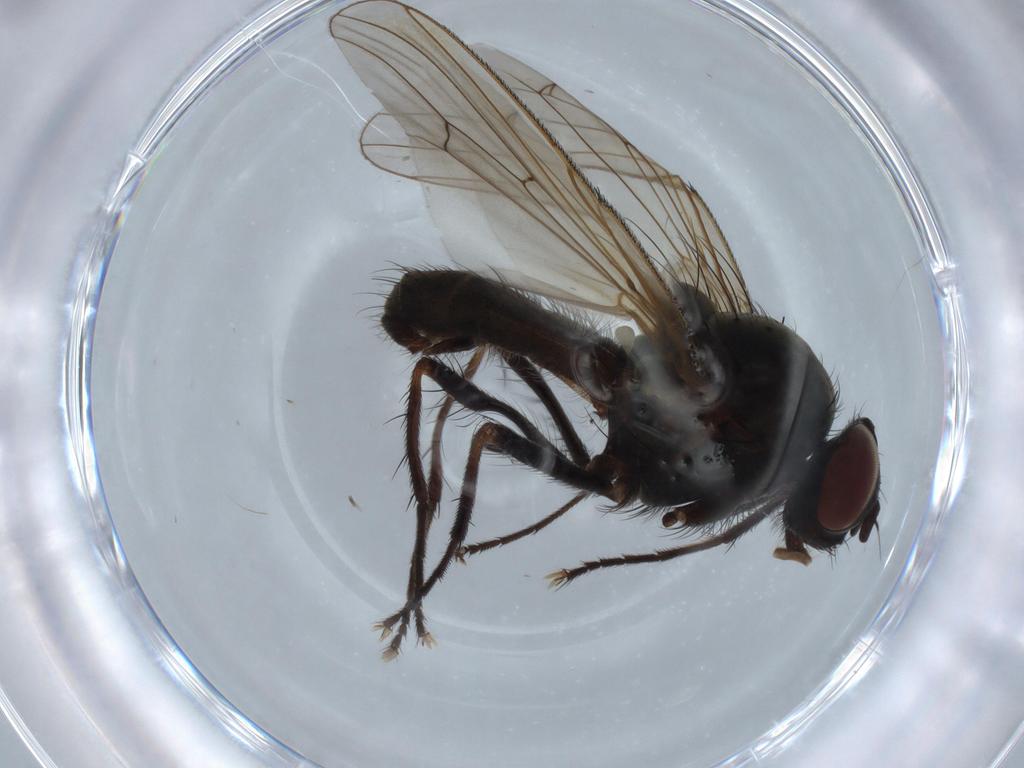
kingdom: Animalia
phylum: Arthropoda
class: Insecta
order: Diptera
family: Anthomyiidae
